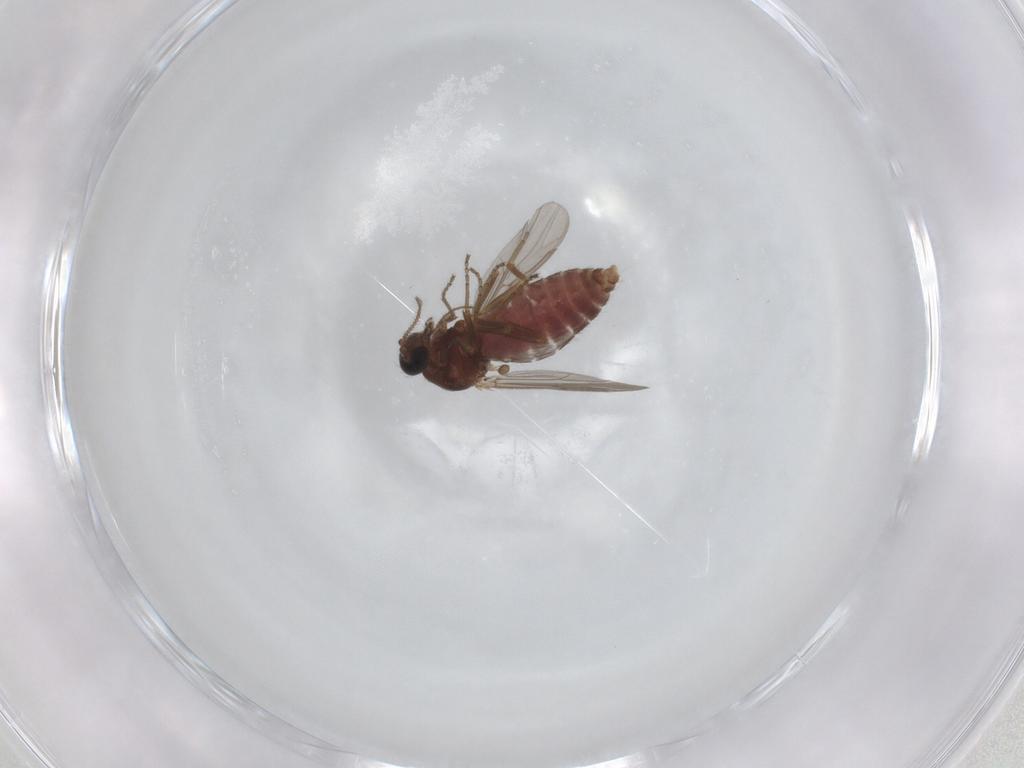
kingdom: Animalia
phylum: Arthropoda
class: Insecta
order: Diptera
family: Ceratopogonidae
